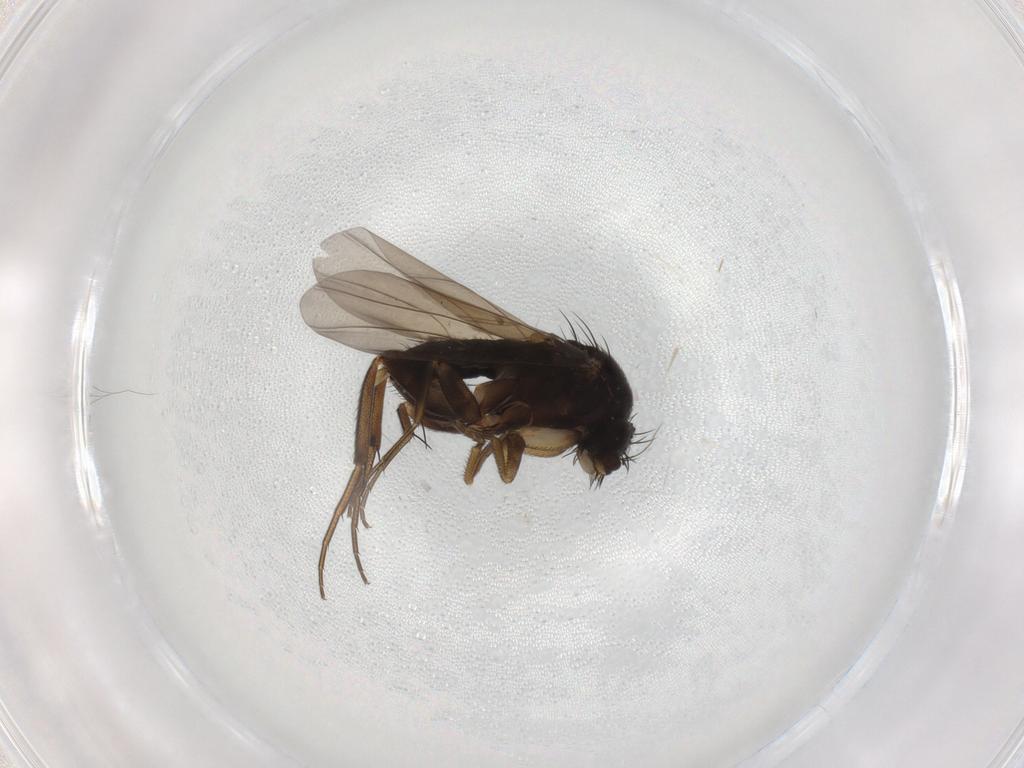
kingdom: Animalia
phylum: Arthropoda
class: Insecta
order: Diptera
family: Phoridae
